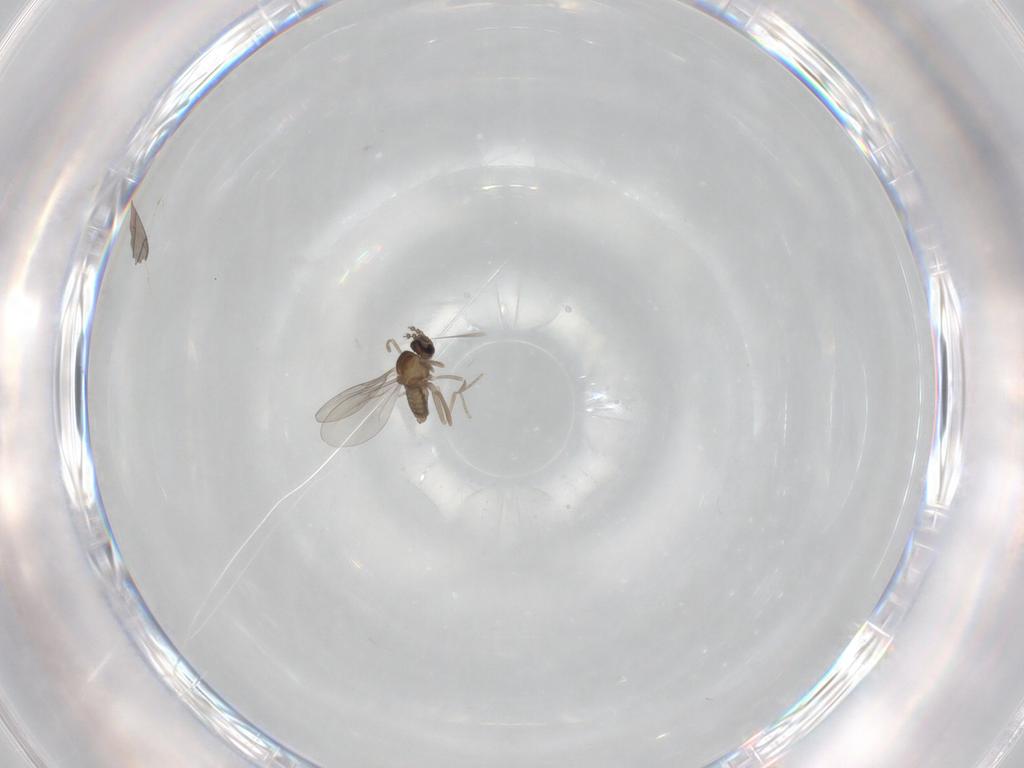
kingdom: Animalia
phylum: Arthropoda
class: Insecta
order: Diptera
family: Cecidomyiidae
